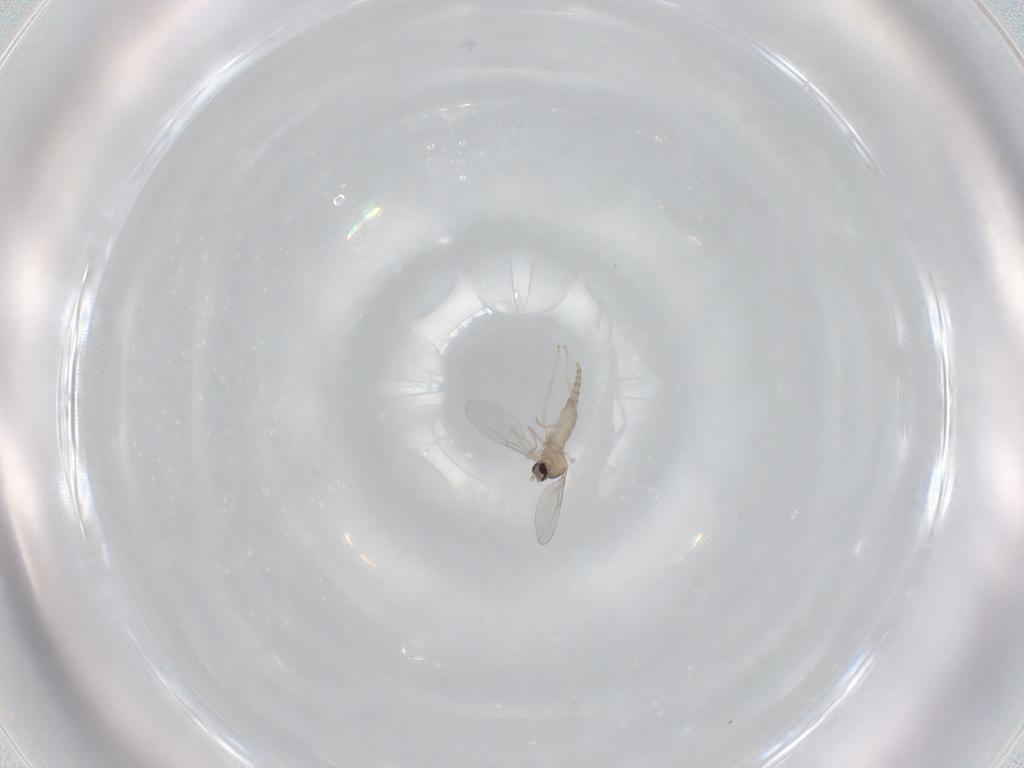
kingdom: Animalia
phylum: Arthropoda
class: Insecta
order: Diptera
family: Cecidomyiidae
